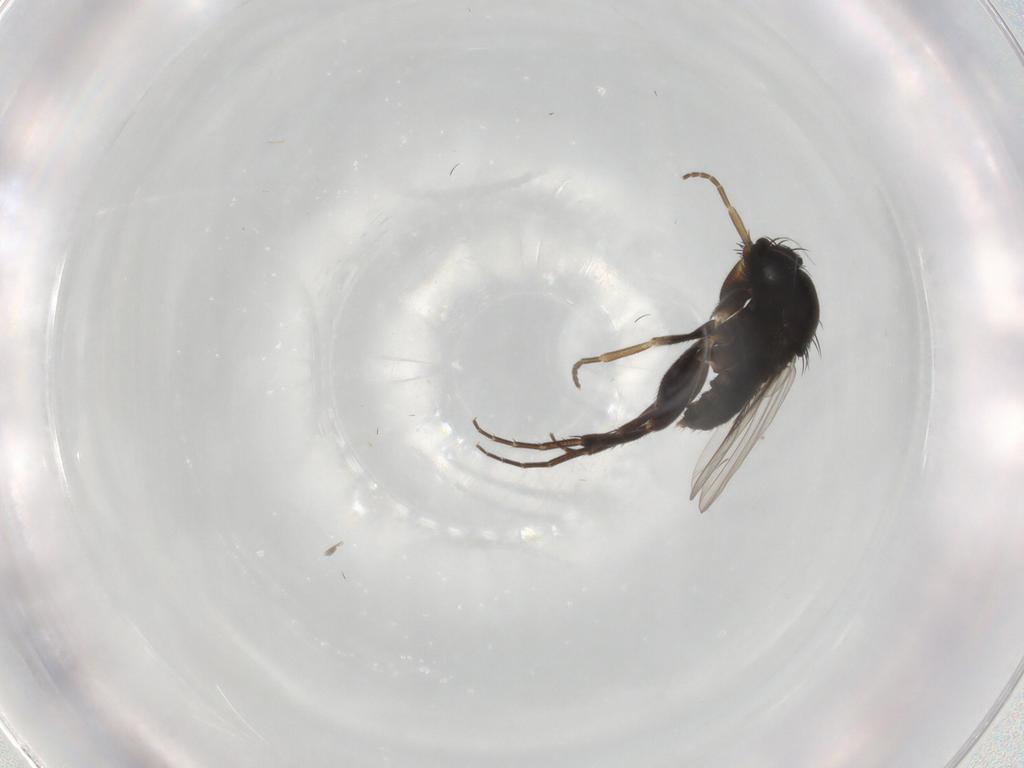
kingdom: Animalia
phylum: Arthropoda
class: Insecta
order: Diptera
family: Phoridae
